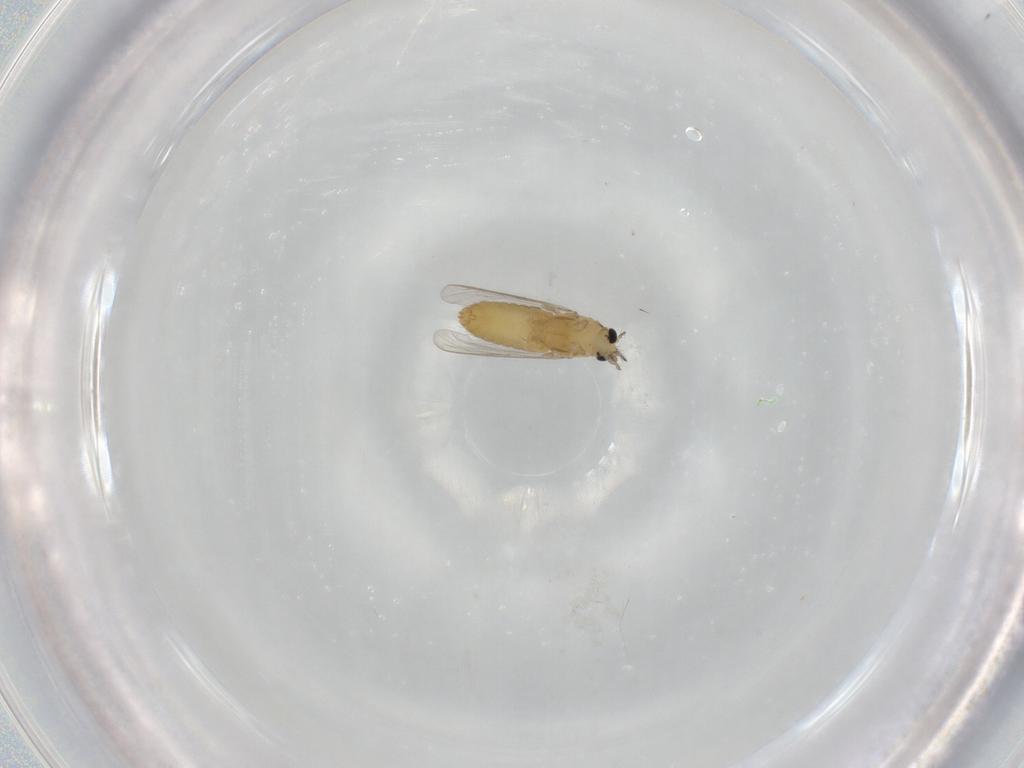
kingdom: Animalia
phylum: Arthropoda
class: Insecta
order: Diptera
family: Chironomidae
